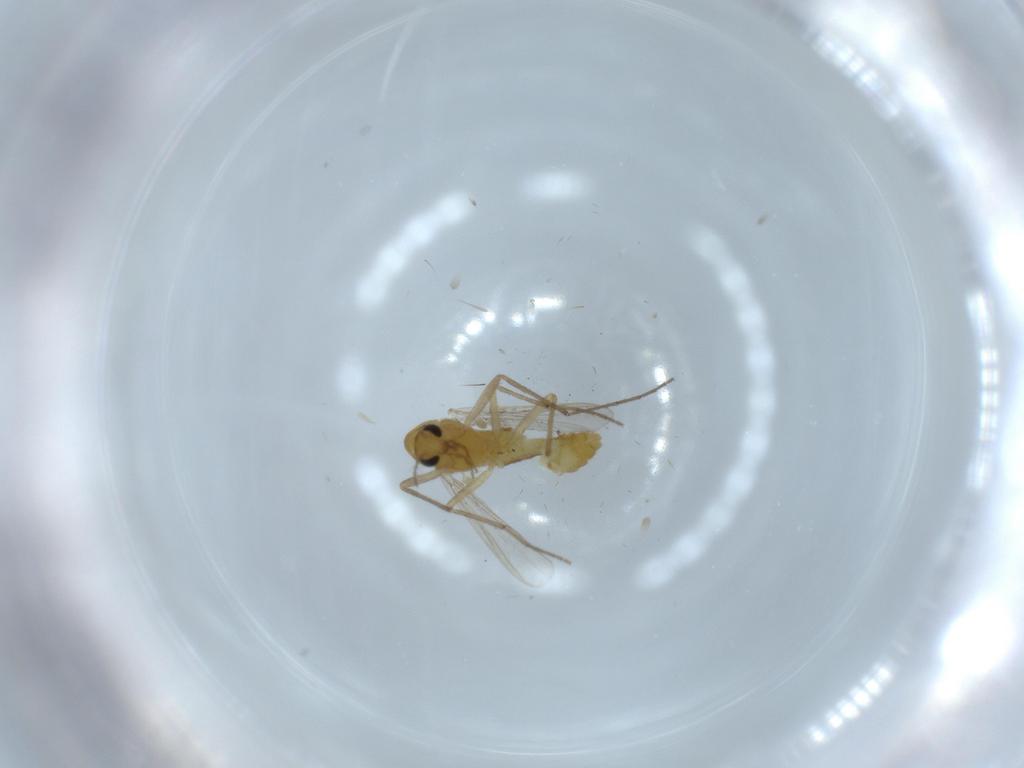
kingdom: Animalia
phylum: Arthropoda
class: Insecta
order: Diptera
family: Chironomidae
